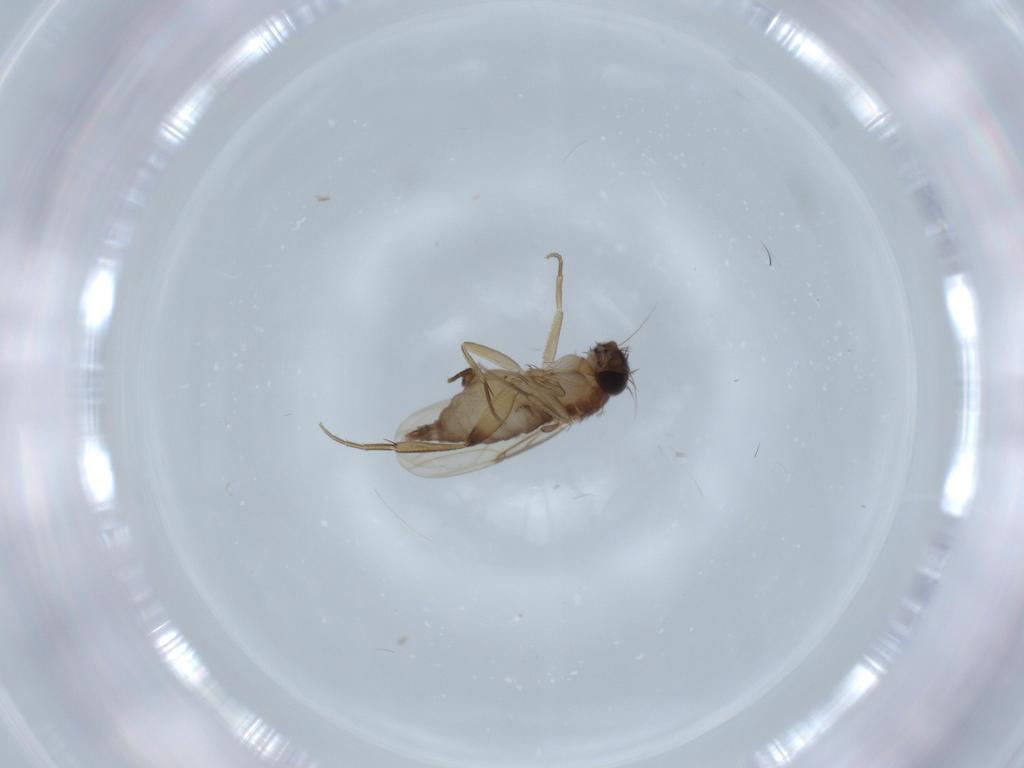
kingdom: Animalia
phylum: Arthropoda
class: Insecta
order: Diptera
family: Phoridae
